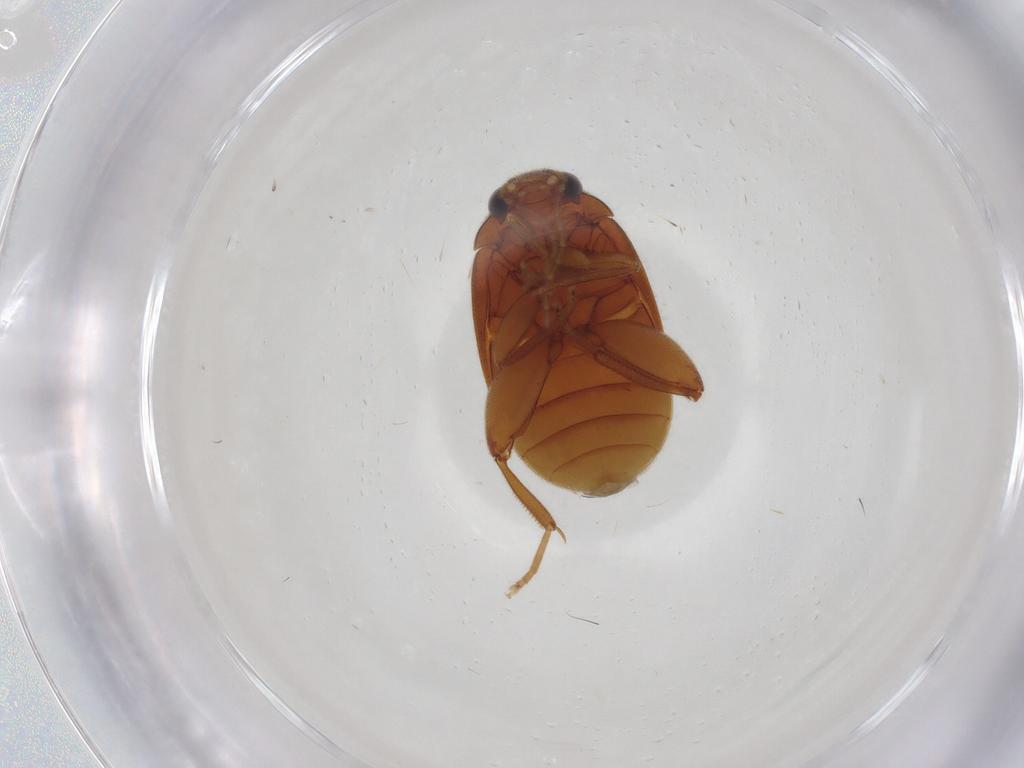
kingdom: Animalia
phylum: Arthropoda
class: Insecta
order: Coleoptera
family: Scirtidae
